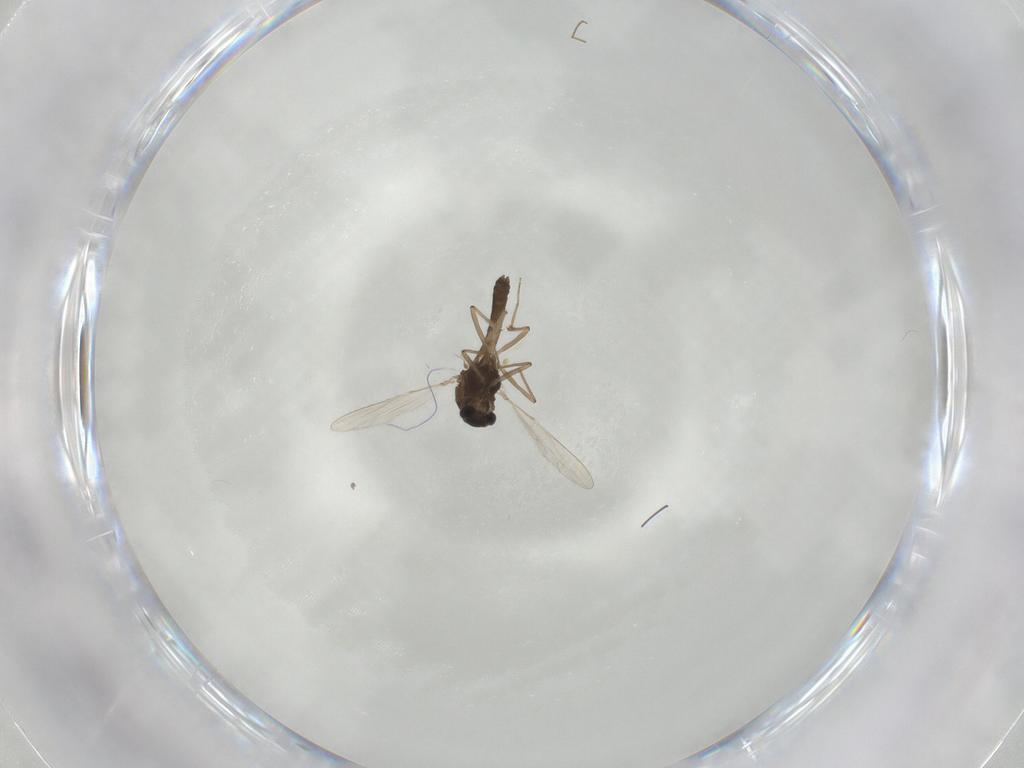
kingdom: Animalia
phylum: Arthropoda
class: Insecta
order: Diptera
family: Chironomidae
